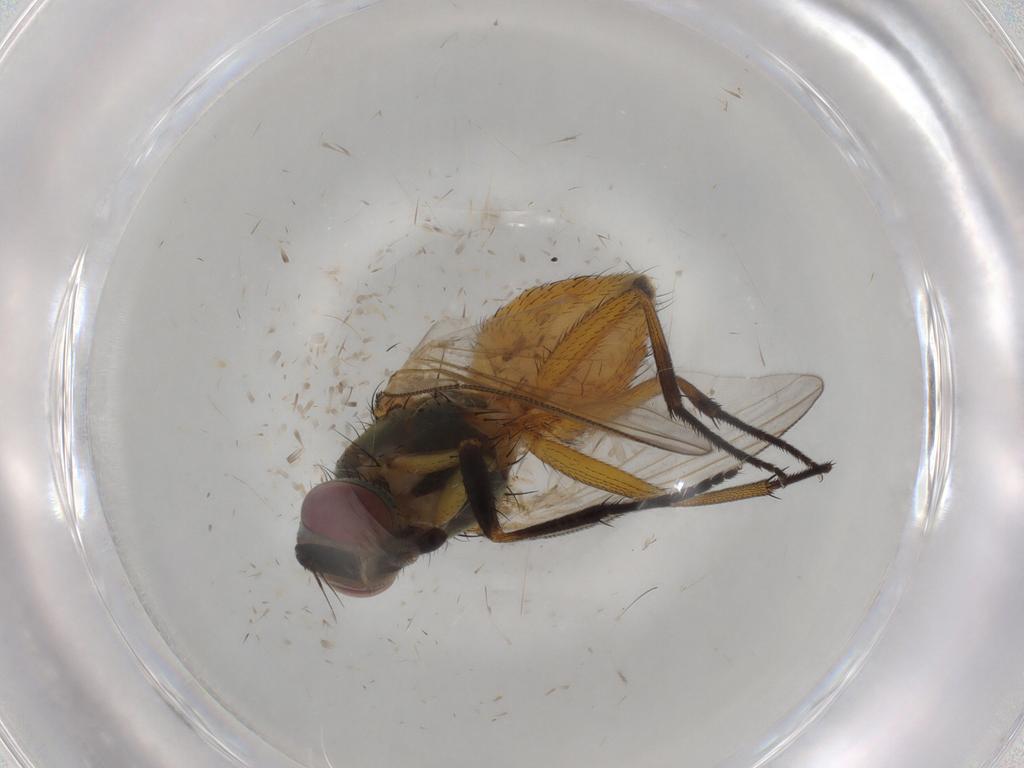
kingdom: Animalia
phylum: Arthropoda
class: Insecta
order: Diptera
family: Muscidae
